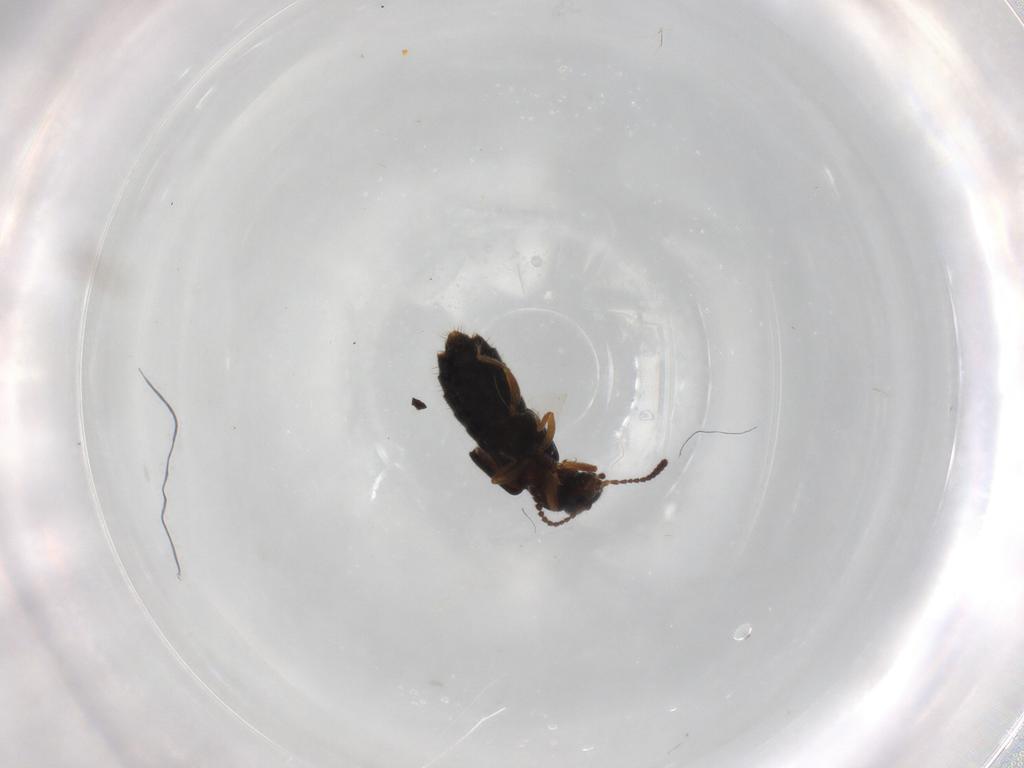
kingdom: Animalia
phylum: Arthropoda
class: Insecta
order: Coleoptera
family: Staphylinidae
